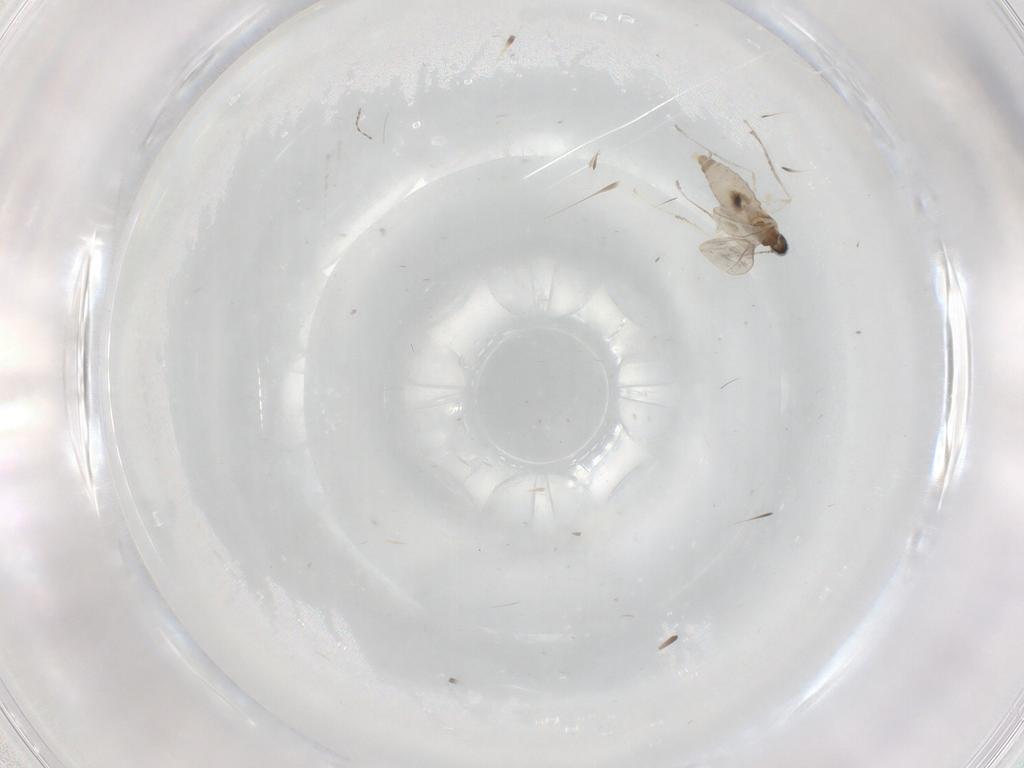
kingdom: Animalia
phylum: Arthropoda
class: Insecta
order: Diptera
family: Cecidomyiidae
